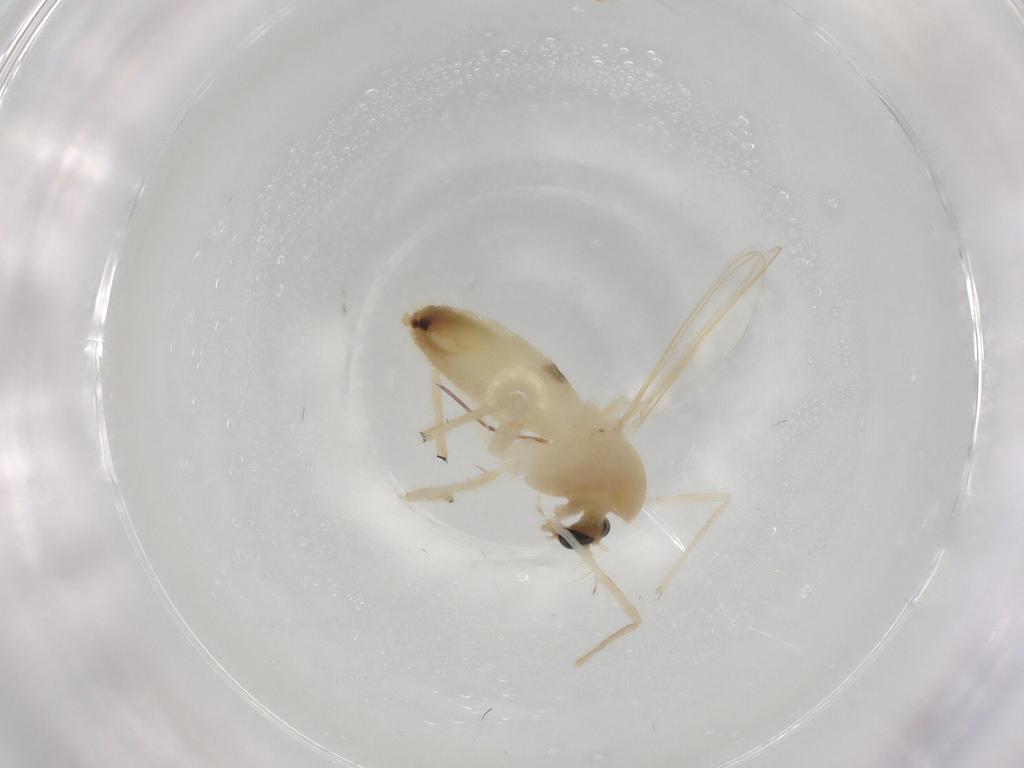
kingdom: Animalia
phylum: Arthropoda
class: Insecta
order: Diptera
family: Chironomidae
